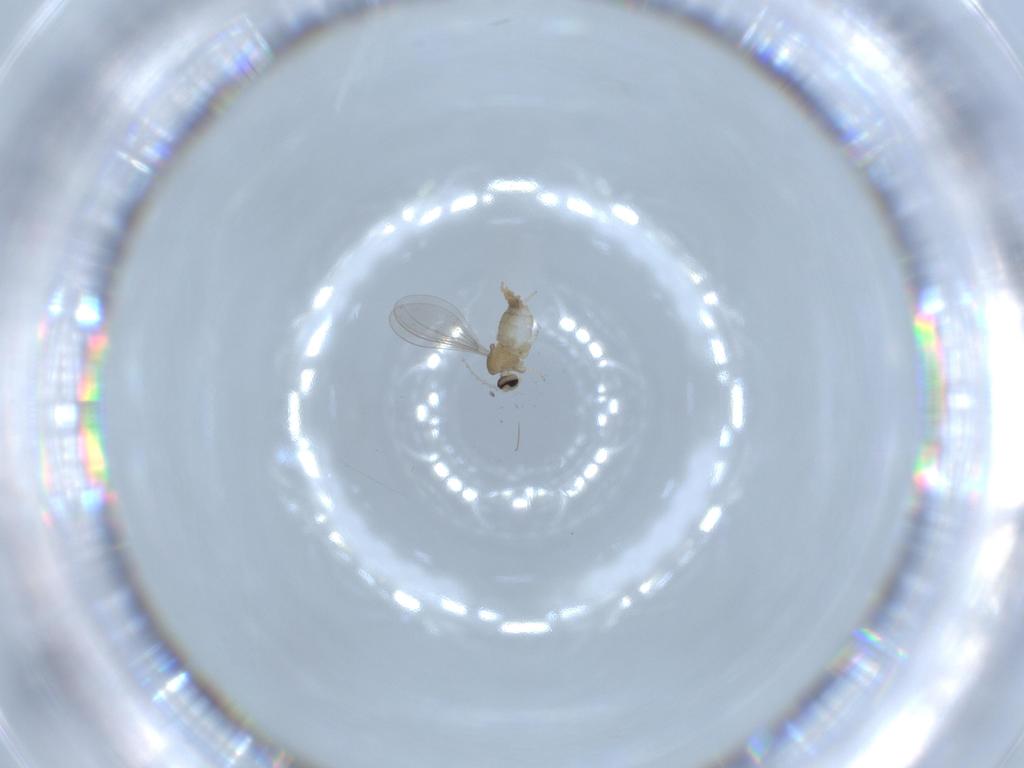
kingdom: Animalia
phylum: Arthropoda
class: Insecta
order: Diptera
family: Cecidomyiidae
